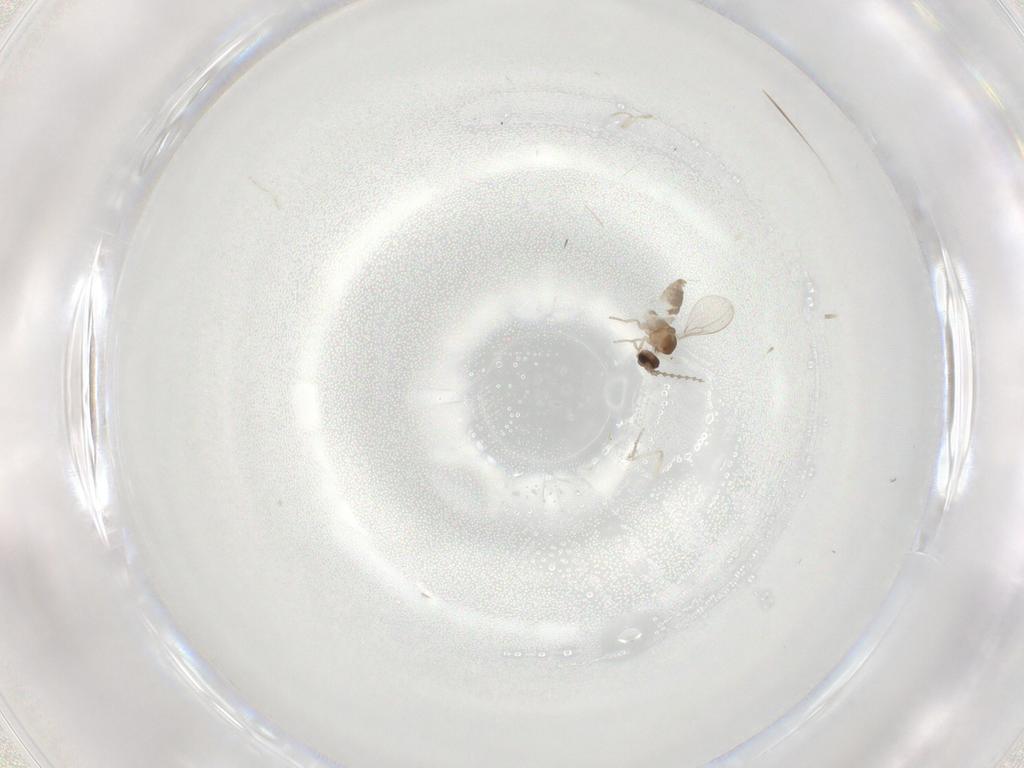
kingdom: Animalia
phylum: Arthropoda
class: Insecta
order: Diptera
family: Cecidomyiidae
